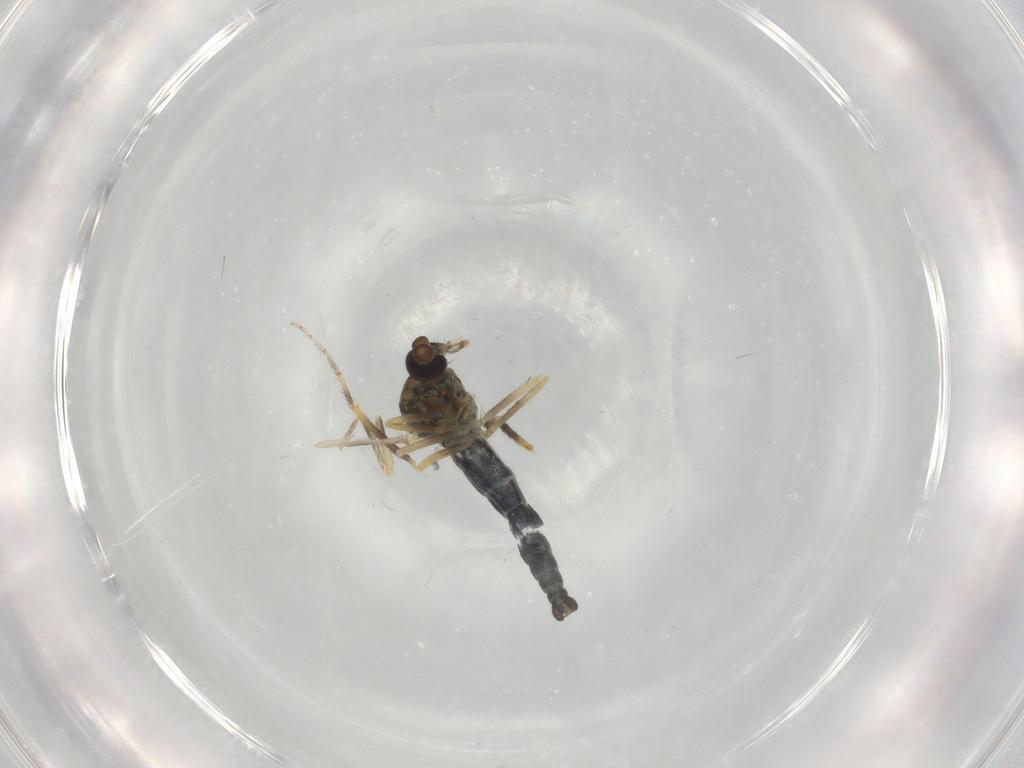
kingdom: Animalia
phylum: Arthropoda
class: Insecta
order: Diptera
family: Ceratopogonidae
